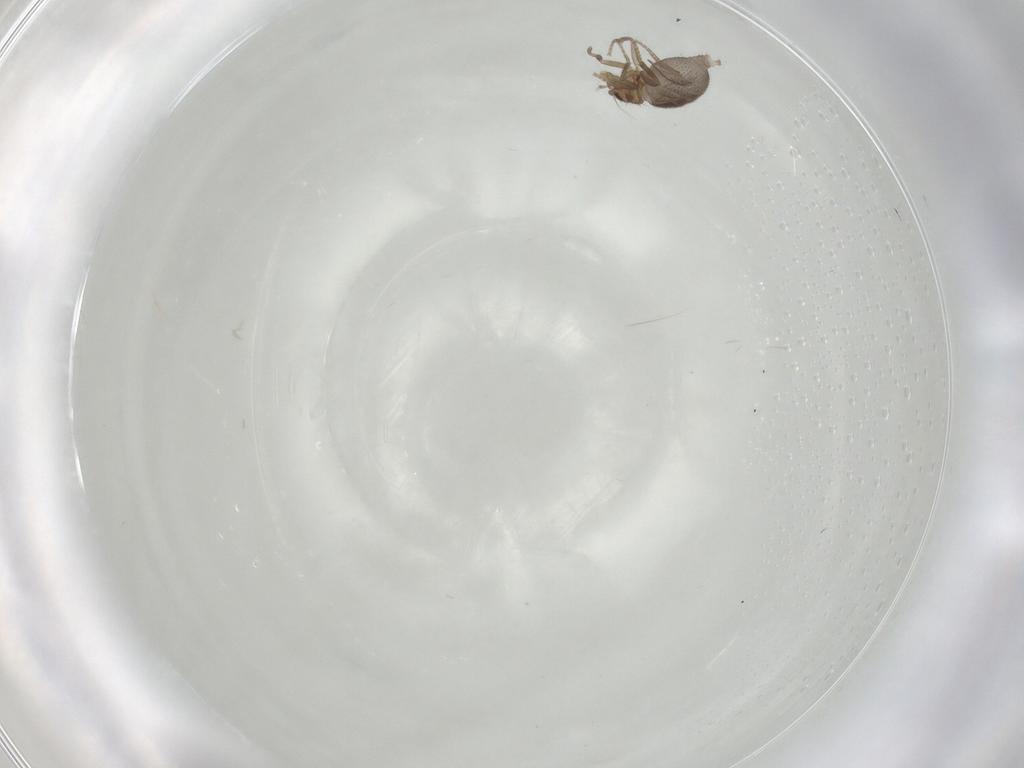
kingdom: Animalia
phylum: Arthropoda
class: Insecta
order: Diptera
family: Phoridae
